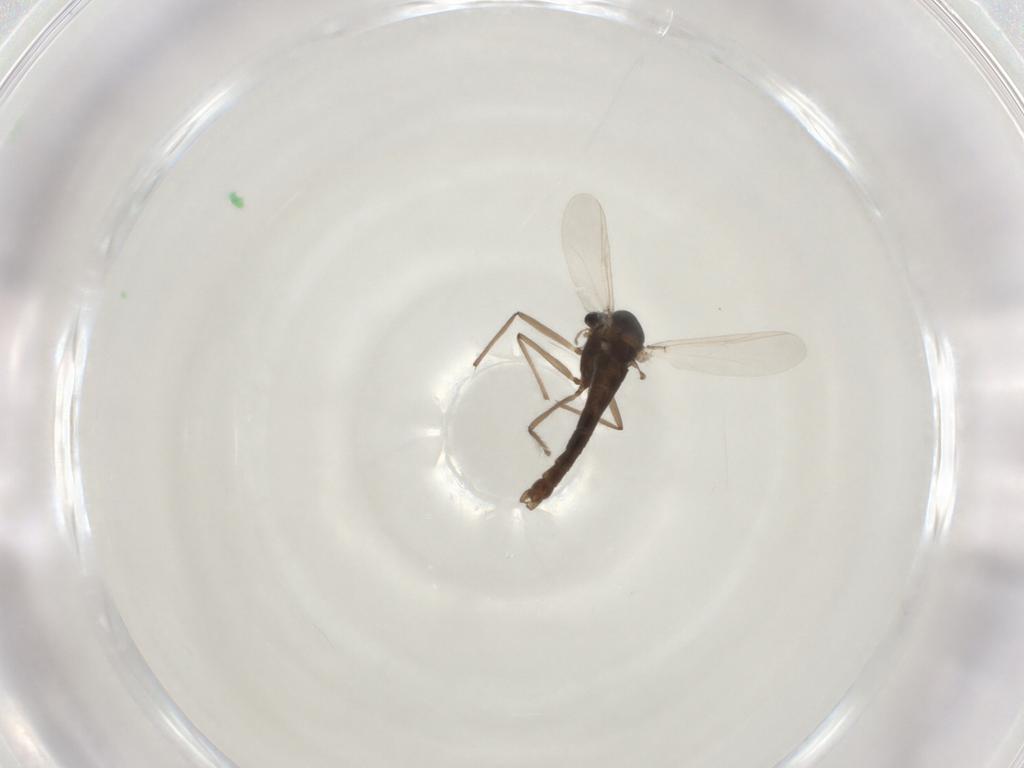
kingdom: Animalia
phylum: Arthropoda
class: Insecta
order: Diptera
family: Chironomidae
